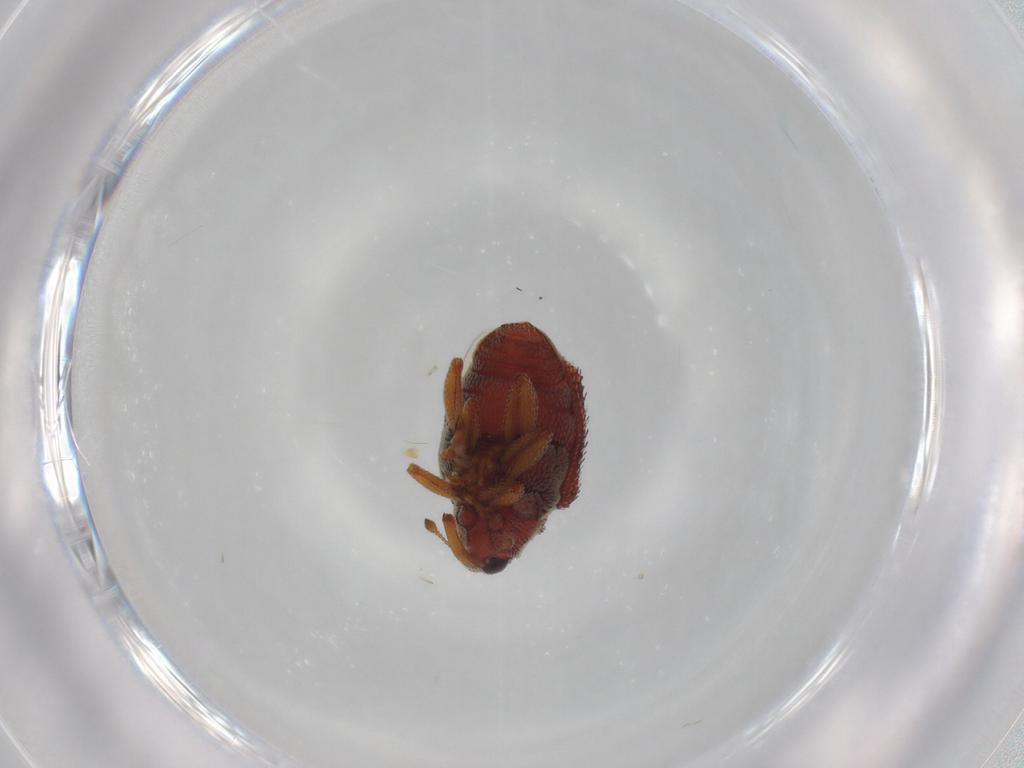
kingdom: Animalia
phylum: Arthropoda
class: Insecta
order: Coleoptera
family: Curculionidae
